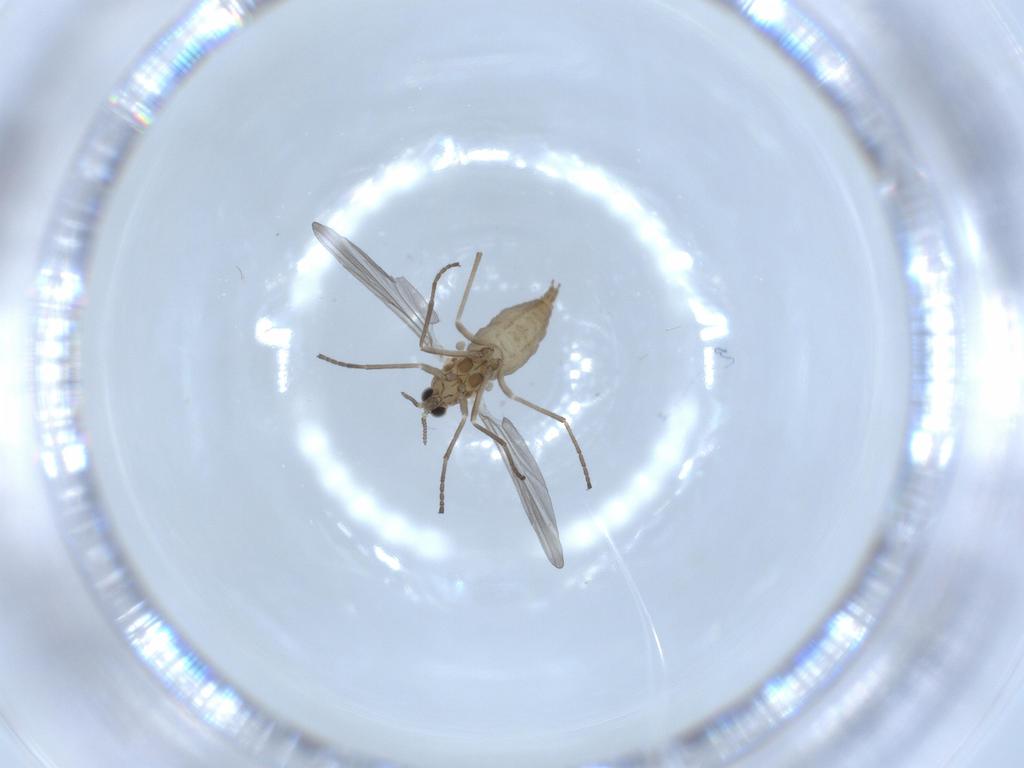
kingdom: Animalia
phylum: Arthropoda
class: Insecta
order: Diptera
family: Cecidomyiidae
